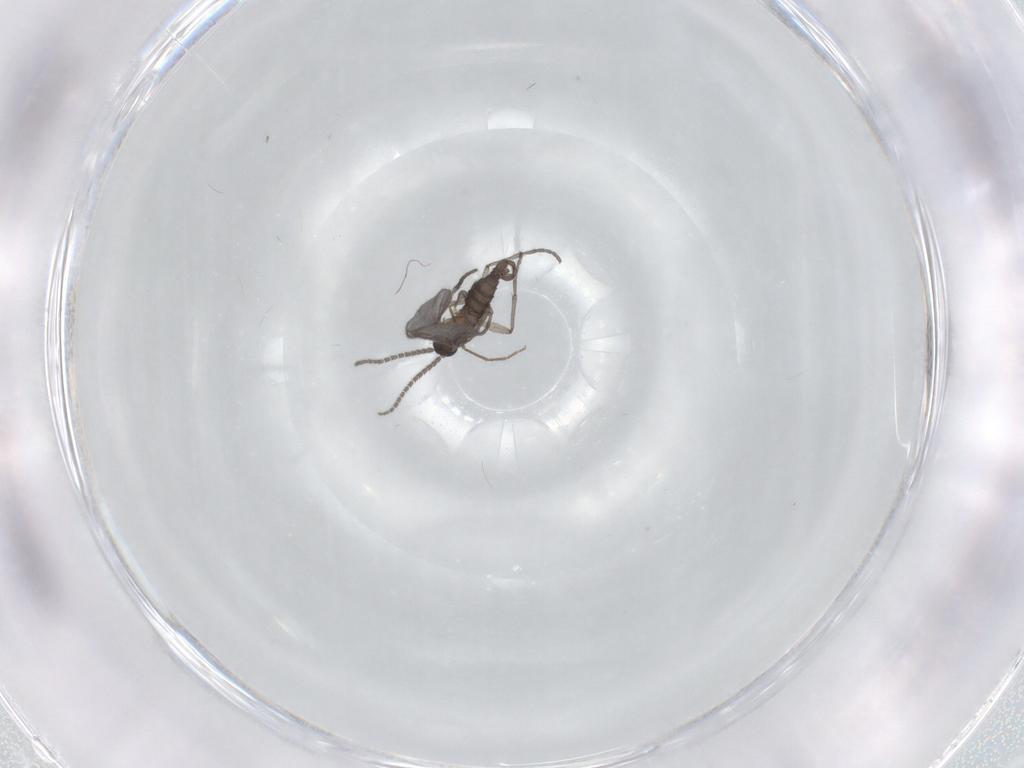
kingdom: Animalia
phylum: Arthropoda
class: Insecta
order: Diptera
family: Sciaridae
